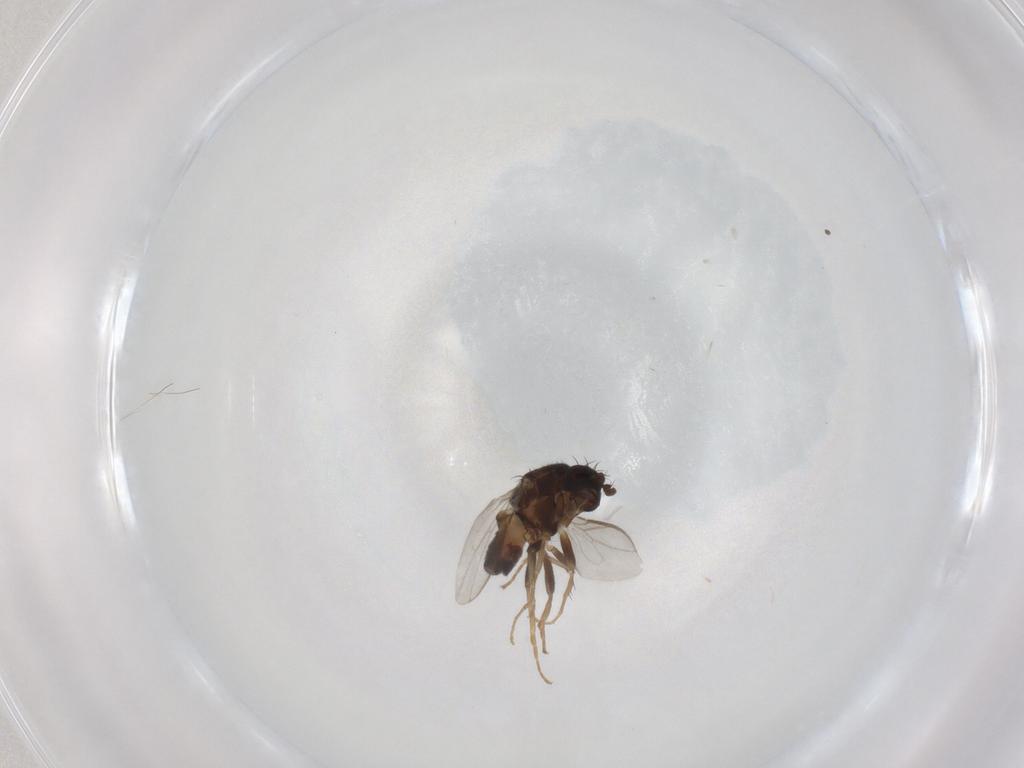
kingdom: Animalia
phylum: Arthropoda
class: Insecta
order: Diptera
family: Sphaeroceridae
